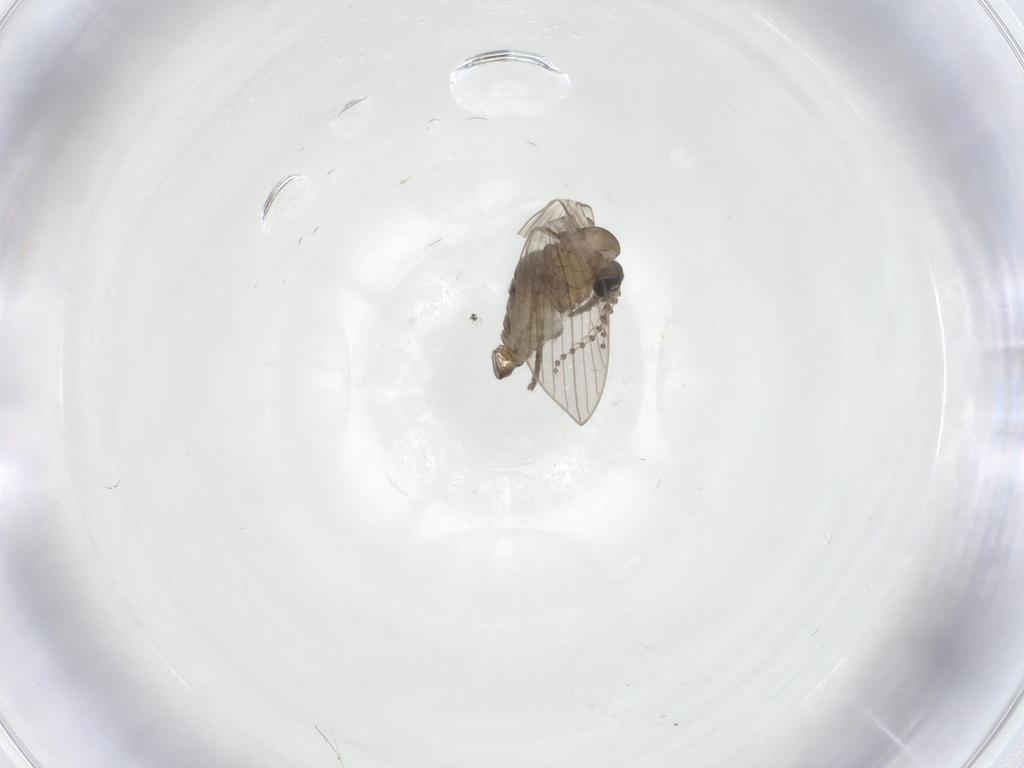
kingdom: Animalia
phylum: Arthropoda
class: Insecta
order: Diptera
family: Psychodidae
